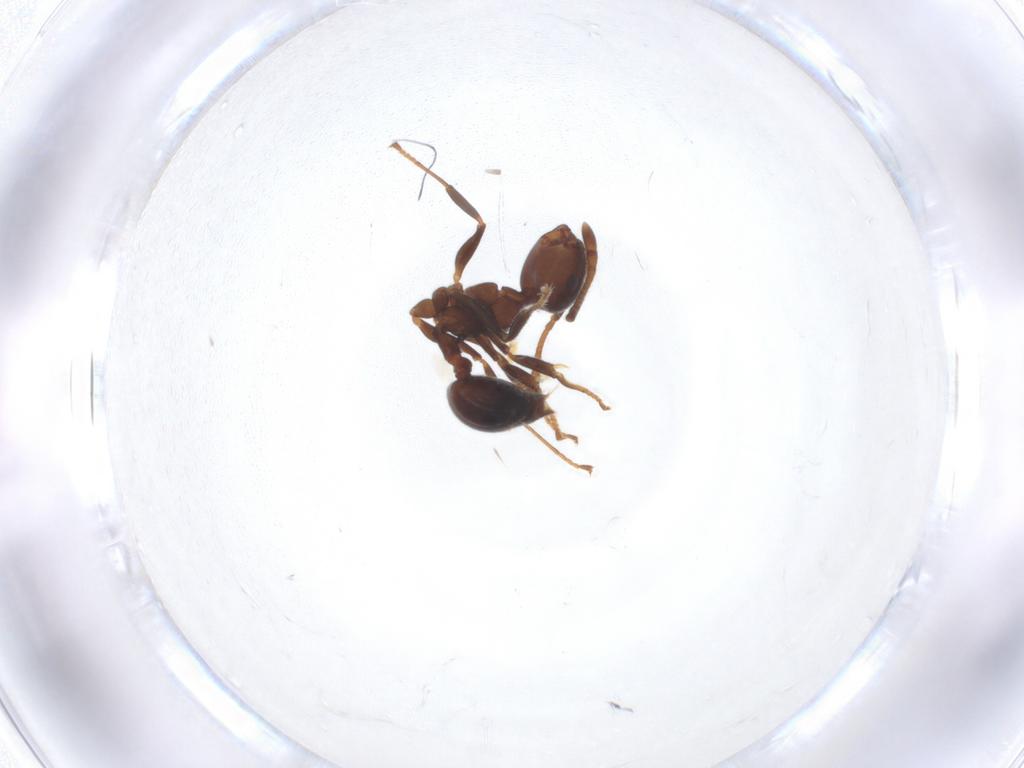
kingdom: Animalia
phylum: Arthropoda
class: Insecta
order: Hymenoptera
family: Formicidae
